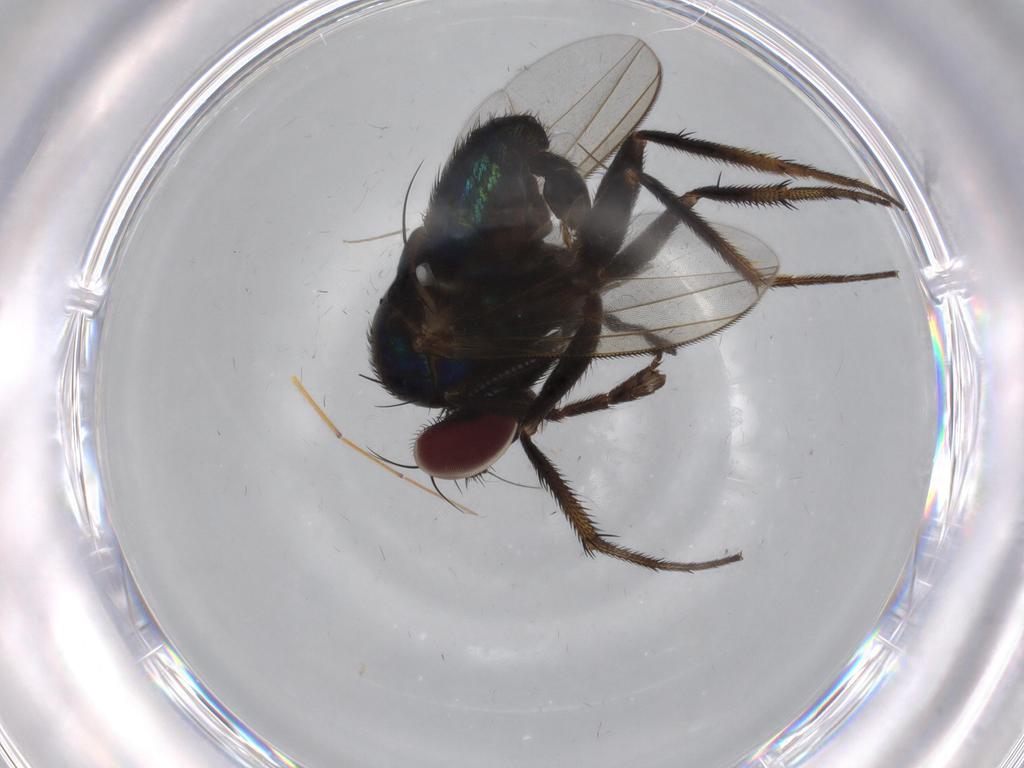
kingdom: Animalia
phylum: Arthropoda
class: Insecta
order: Diptera
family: Dolichopodidae
